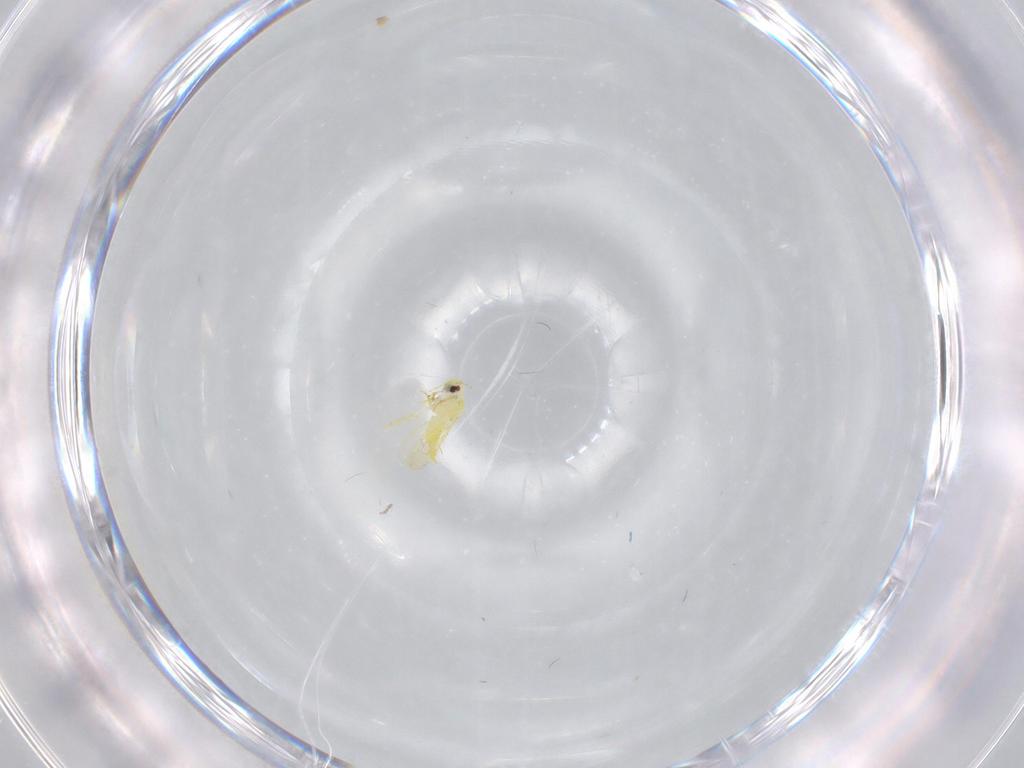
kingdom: Animalia
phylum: Arthropoda
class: Insecta
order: Hemiptera
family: Aleyrodidae
